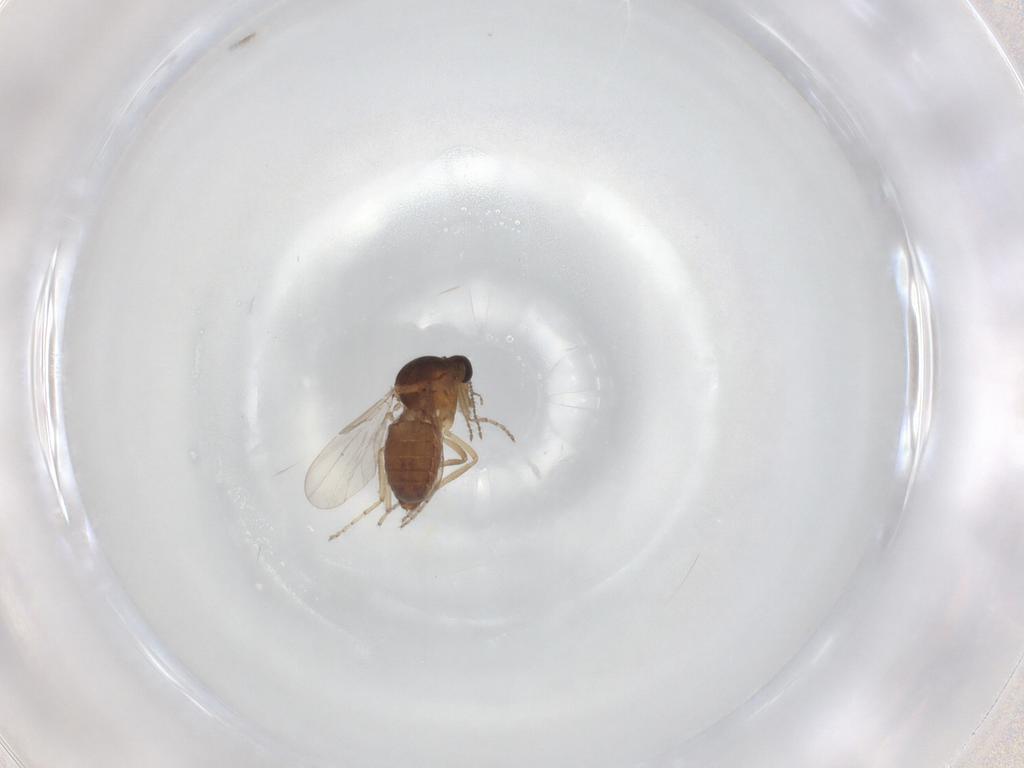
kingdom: Animalia
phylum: Arthropoda
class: Insecta
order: Diptera
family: Ceratopogonidae
